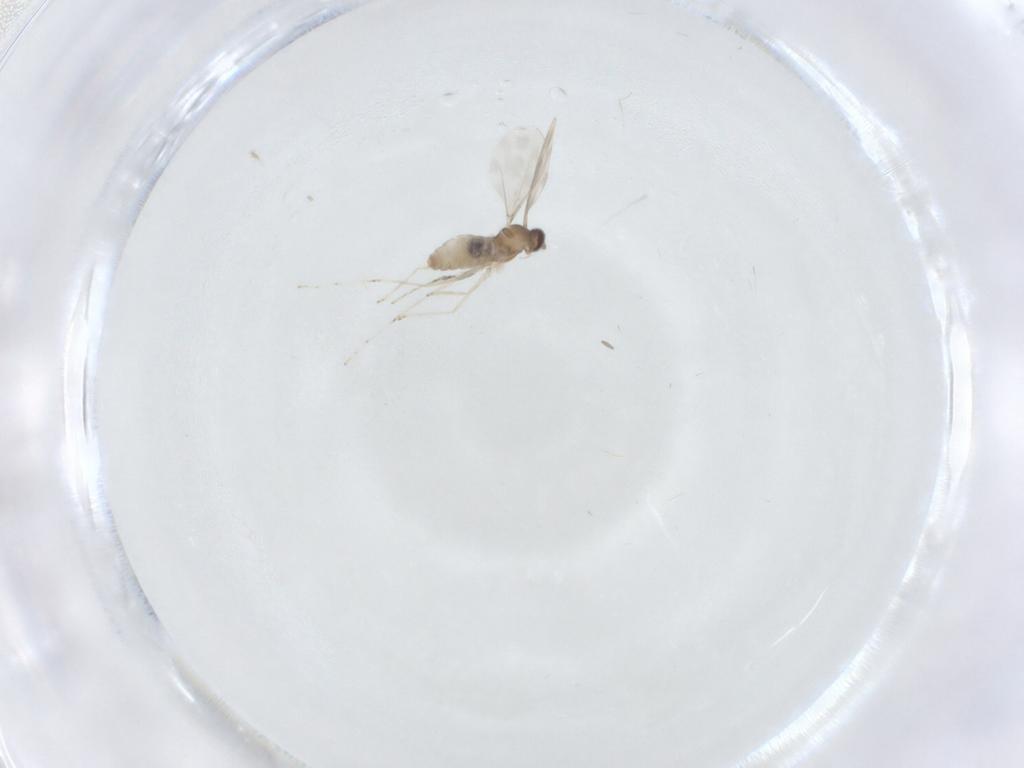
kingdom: Animalia
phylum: Arthropoda
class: Insecta
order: Diptera
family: Cecidomyiidae
